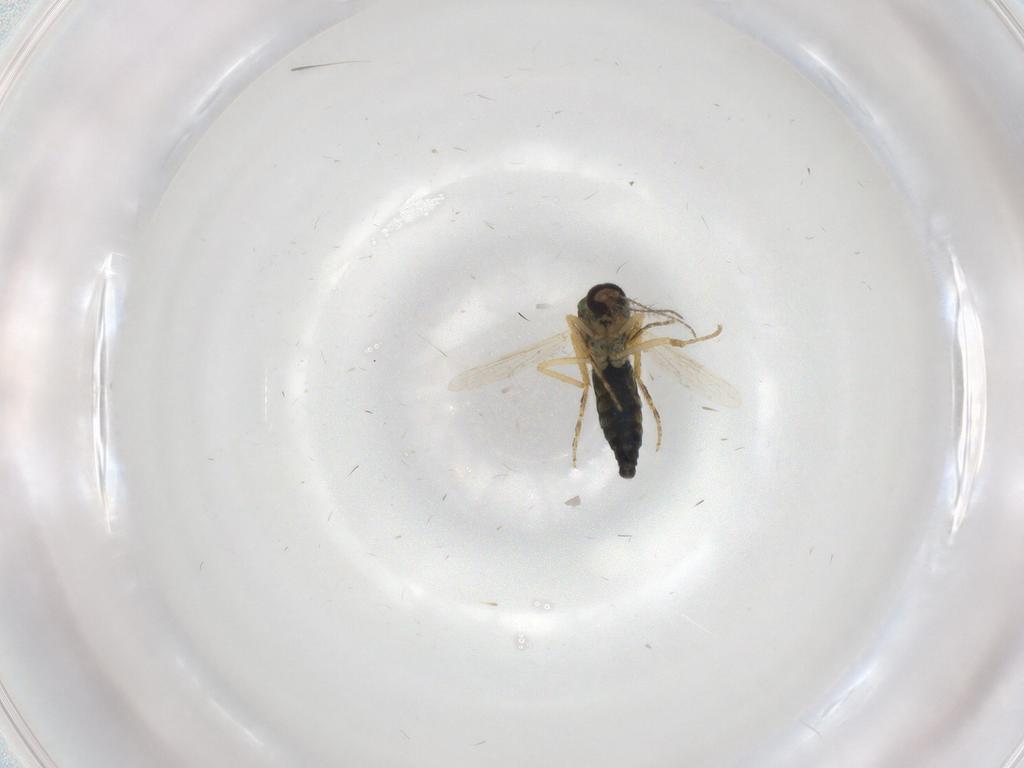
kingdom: Animalia
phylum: Arthropoda
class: Insecta
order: Diptera
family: Ceratopogonidae
